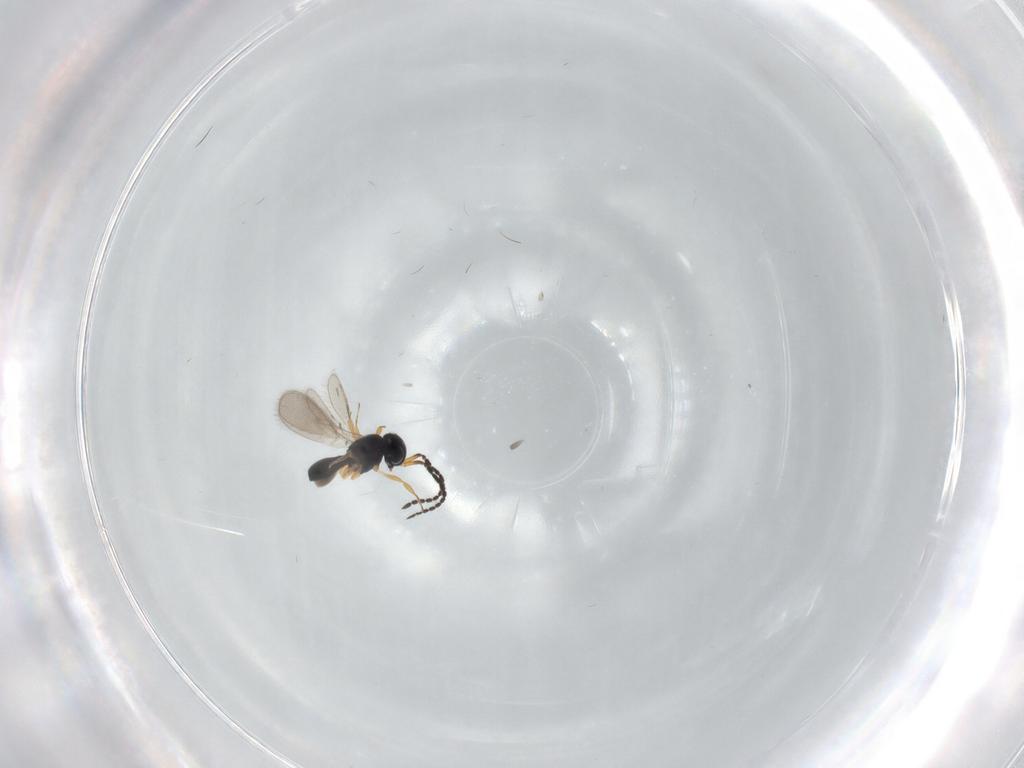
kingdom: Animalia
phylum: Arthropoda
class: Insecta
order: Hymenoptera
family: Scelionidae
